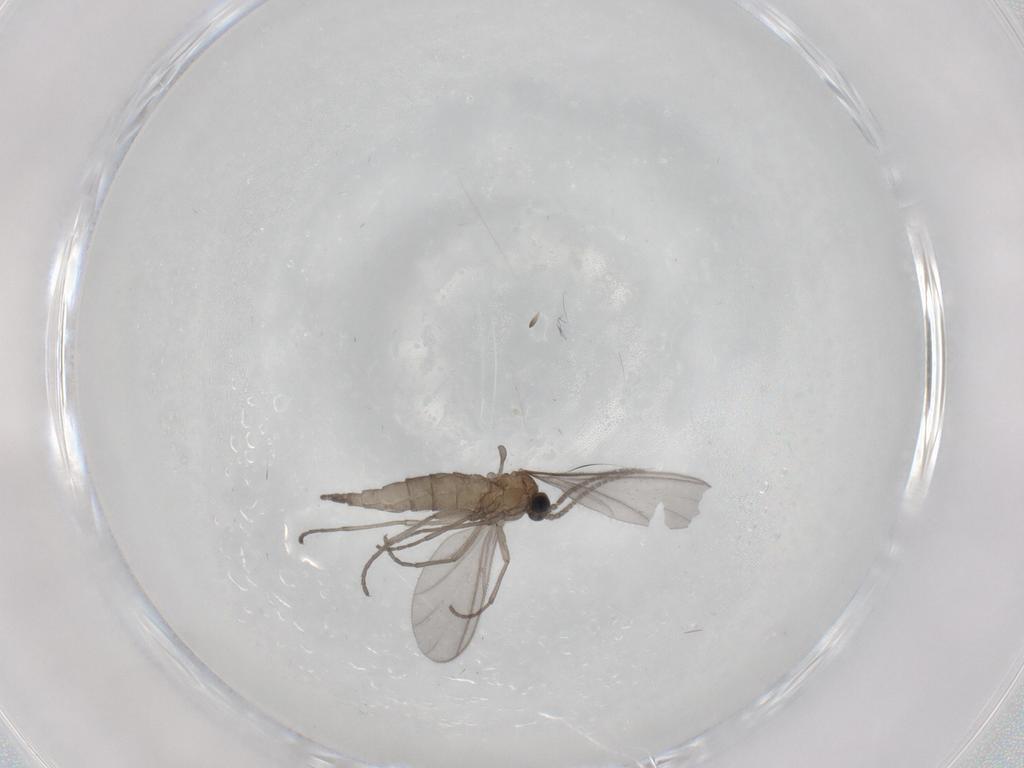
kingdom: Animalia
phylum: Arthropoda
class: Insecta
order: Diptera
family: Sciaridae
